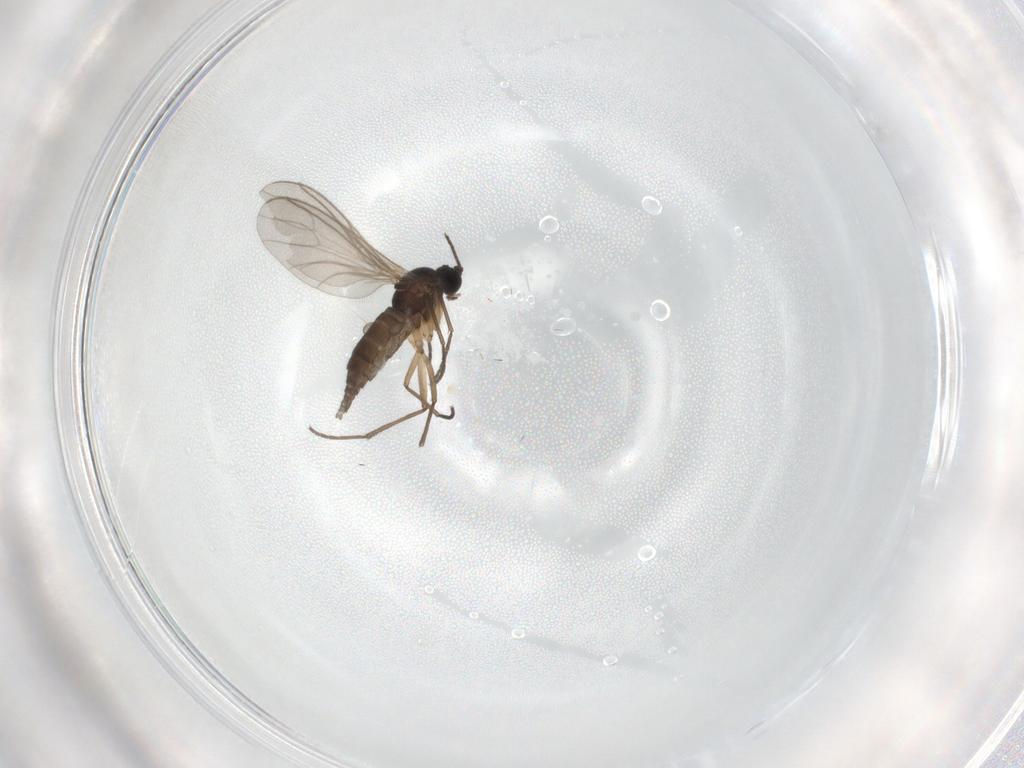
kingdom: Animalia
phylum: Arthropoda
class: Insecta
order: Diptera
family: Sciaridae
